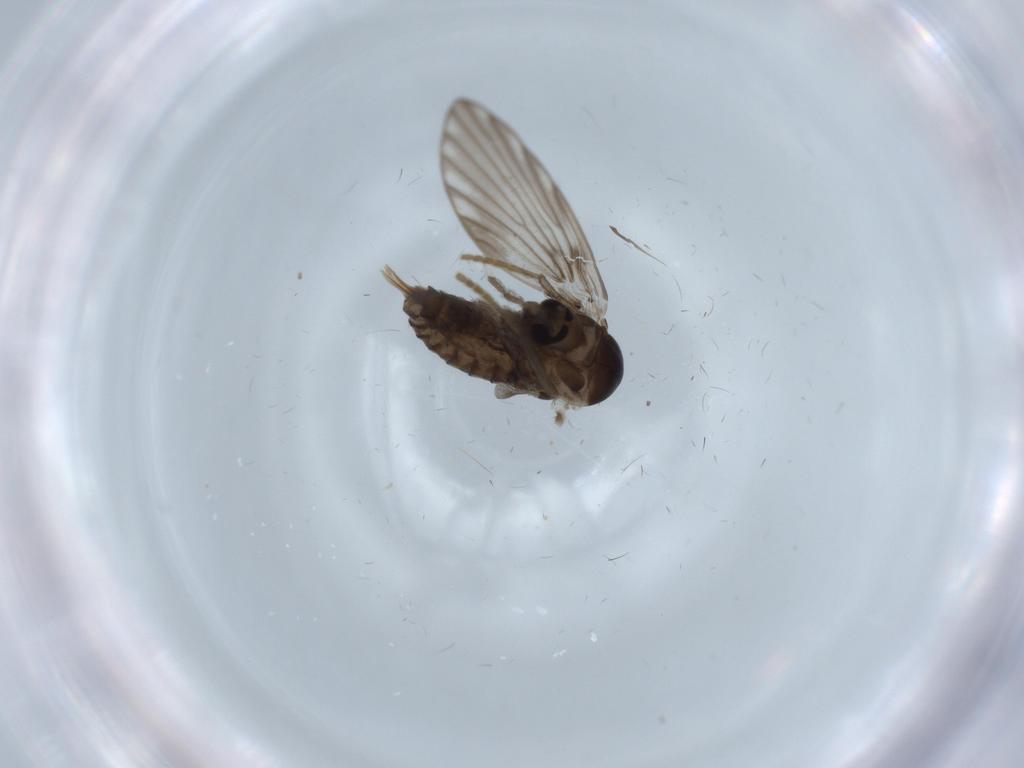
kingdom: Animalia
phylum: Arthropoda
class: Insecta
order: Diptera
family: Psychodidae
